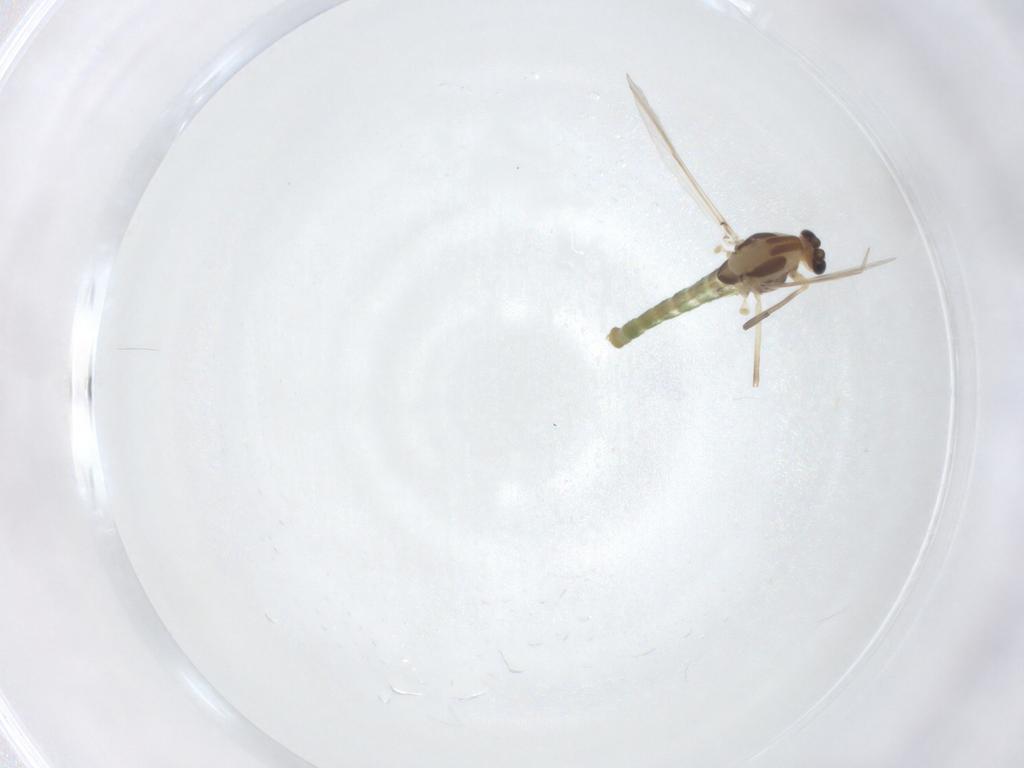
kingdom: Animalia
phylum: Arthropoda
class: Insecta
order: Diptera
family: Chironomidae
